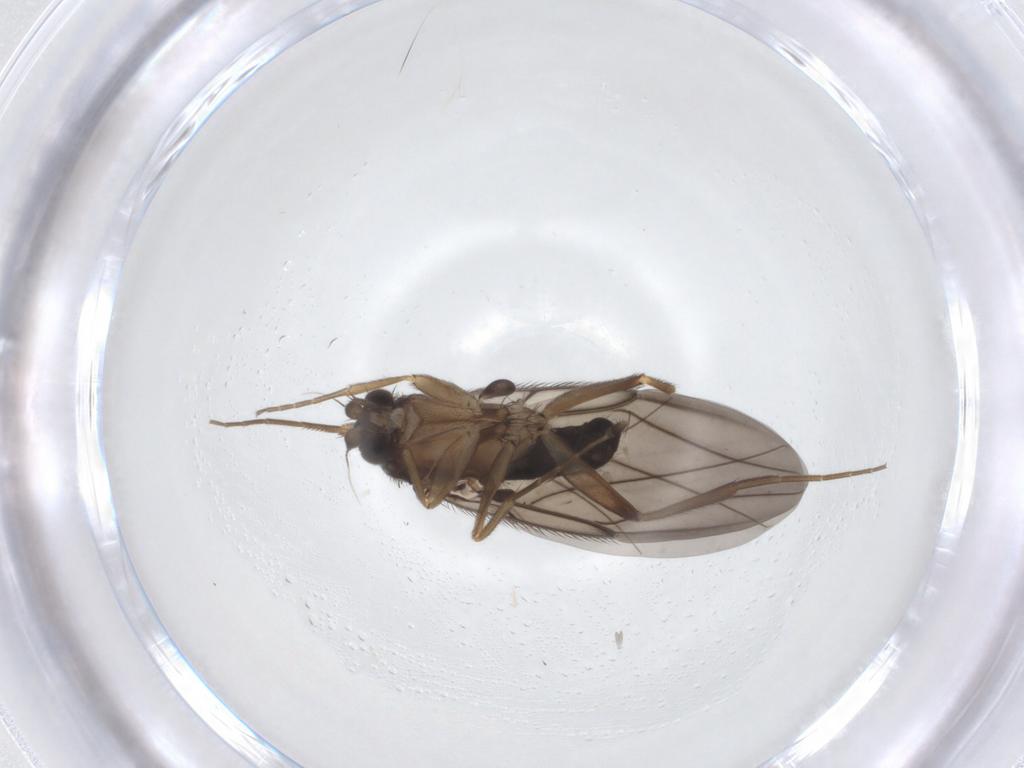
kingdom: Animalia
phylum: Arthropoda
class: Insecta
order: Diptera
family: Phoridae
